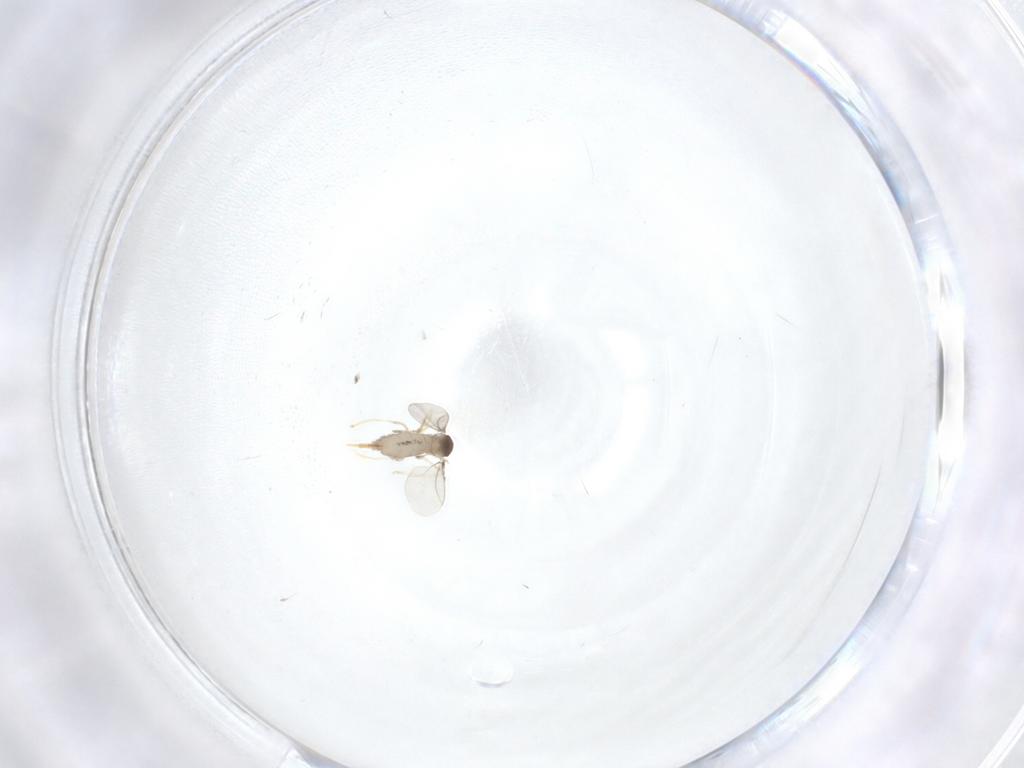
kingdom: Animalia
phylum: Arthropoda
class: Insecta
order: Diptera
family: Cecidomyiidae
